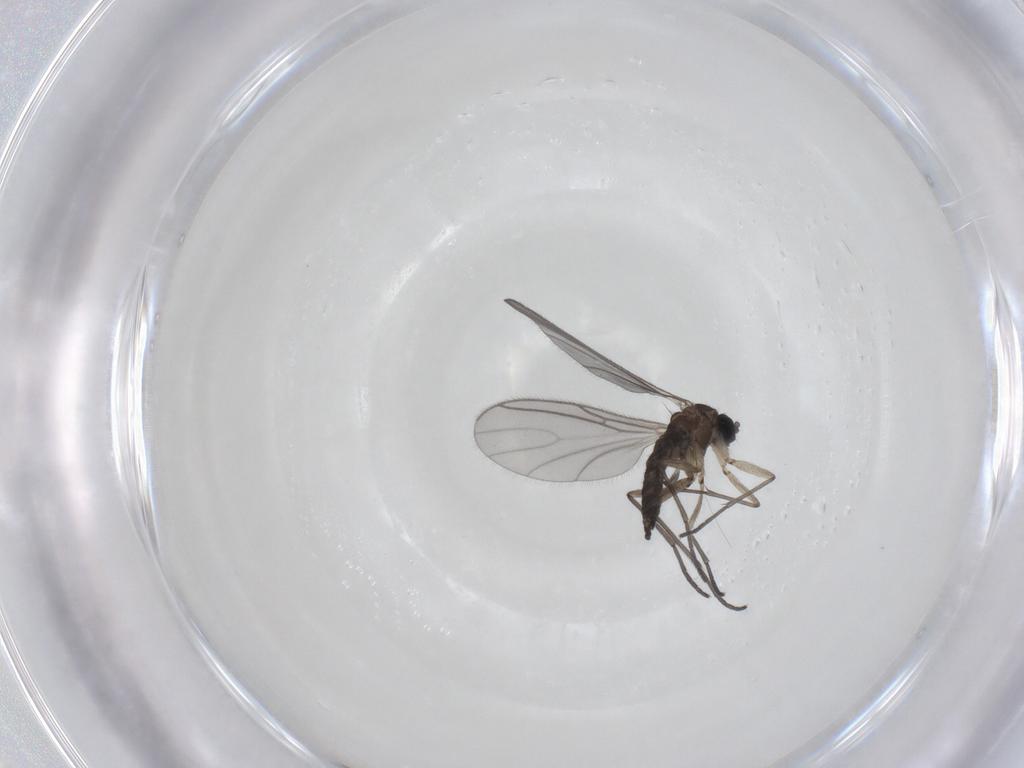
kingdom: Animalia
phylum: Arthropoda
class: Insecta
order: Diptera
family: Sciaridae
